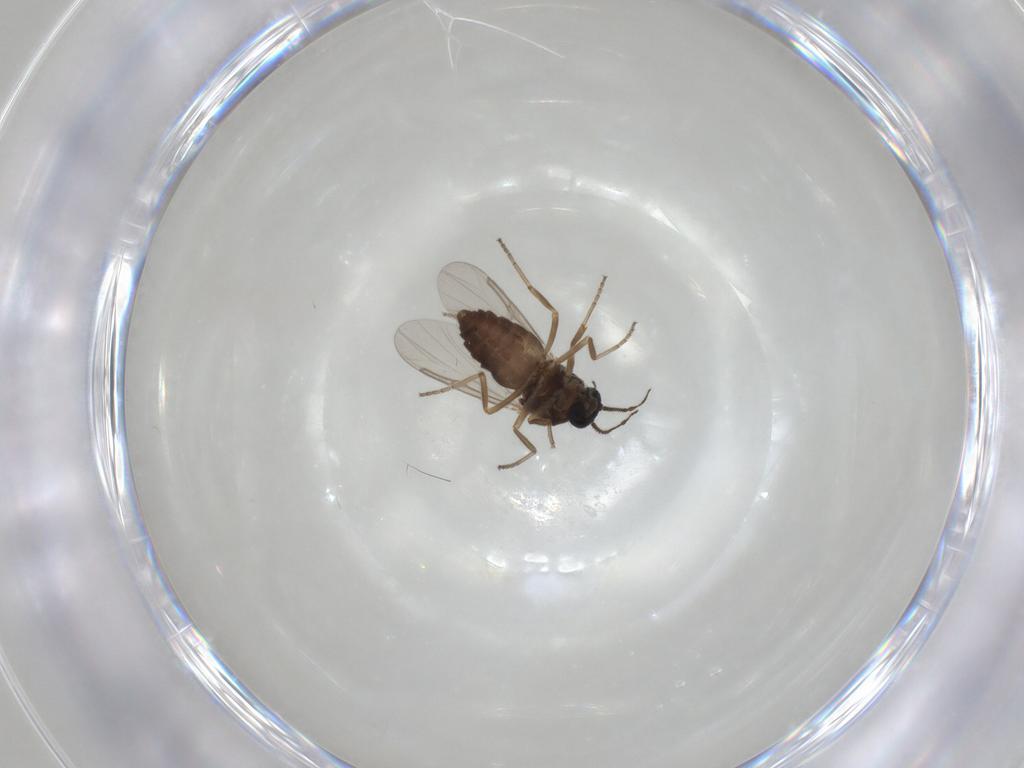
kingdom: Animalia
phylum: Arthropoda
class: Insecta
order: Diptera
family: Ceratopogonidae
